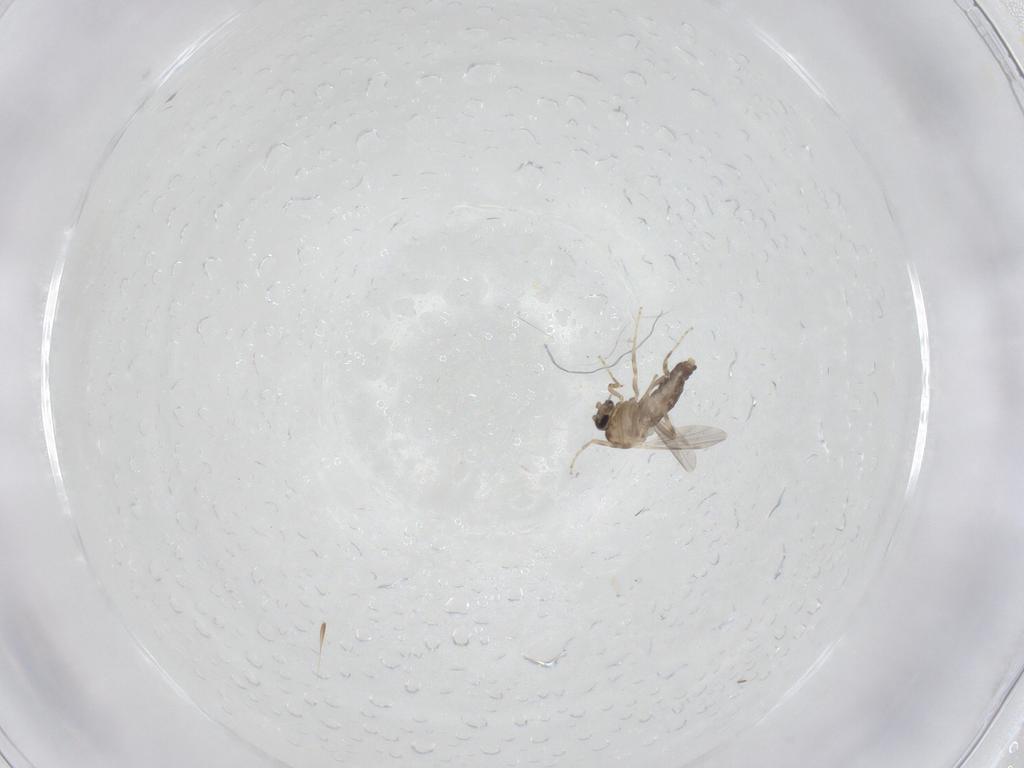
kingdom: Animalia
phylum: Arthropoda
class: Insecta
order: Diptera
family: Ceratopogonidae
